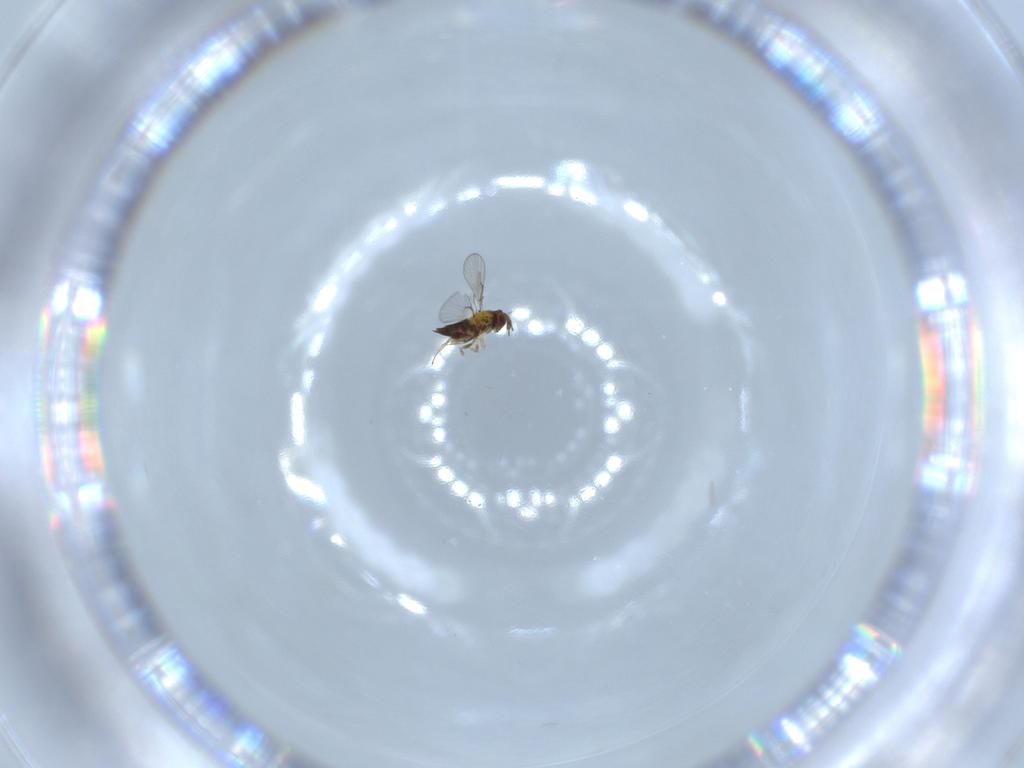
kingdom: Animalia
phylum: Arthropoda
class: Insecta
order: Hymenoptera
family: Trichogrammatidae
